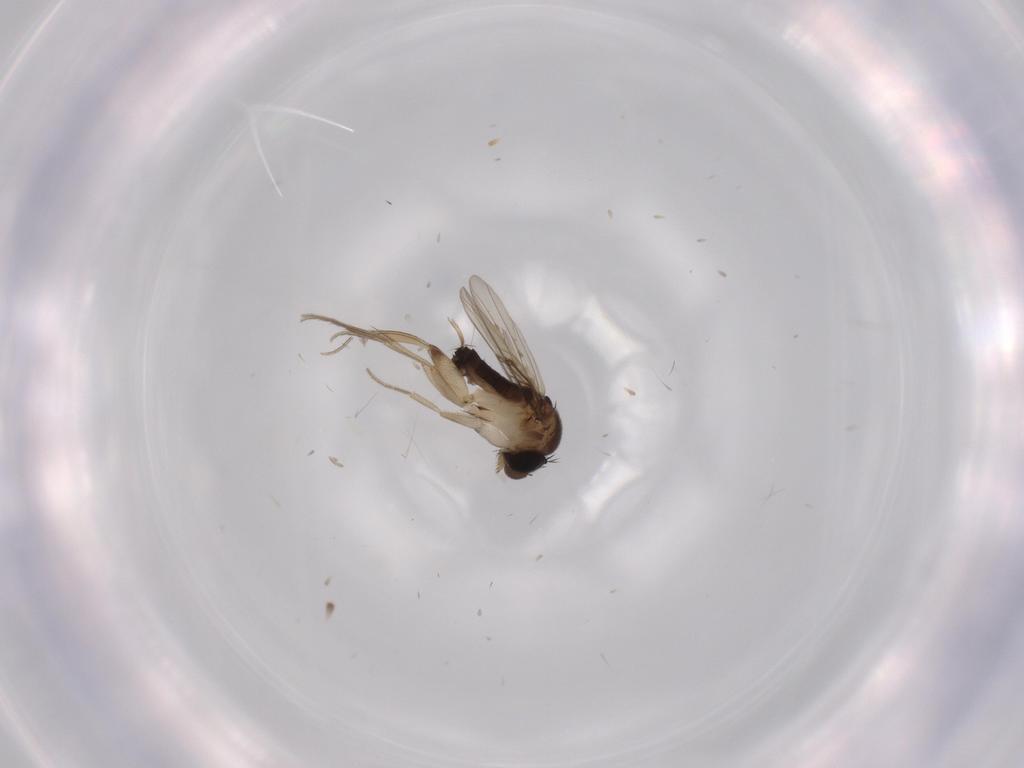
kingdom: Animalia
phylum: Arthropoda
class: Insecta
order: Diptera
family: Phoridae
